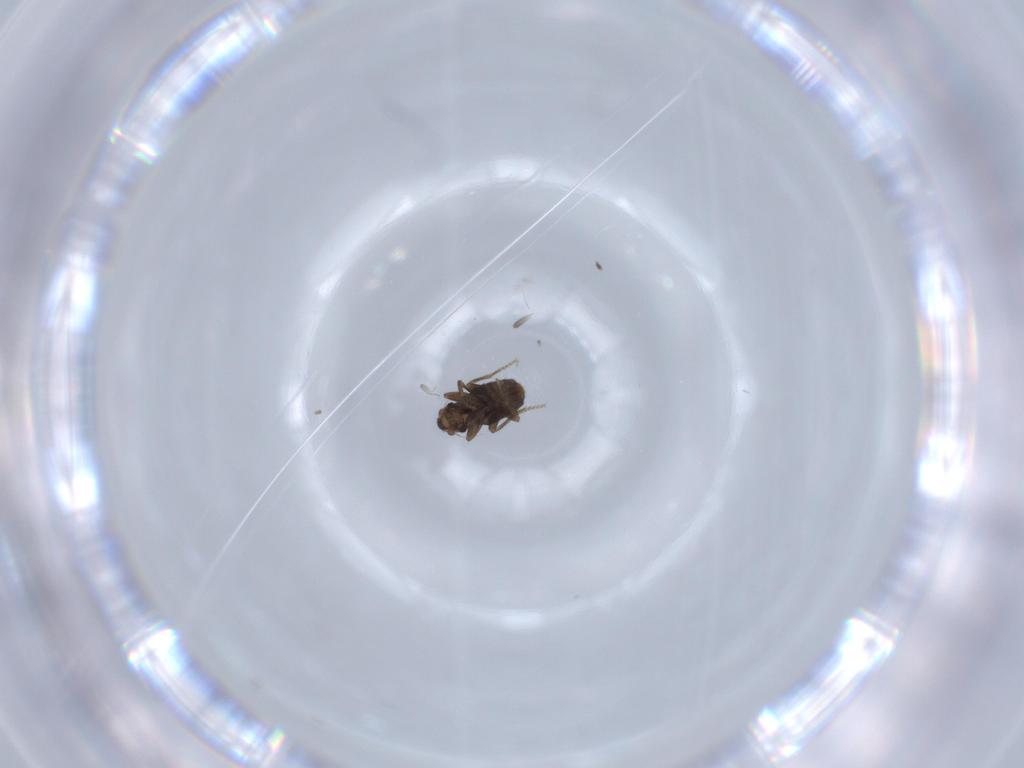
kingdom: Animalia
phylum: Arthropoda
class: Insecta
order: Diptera
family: Phoridae
